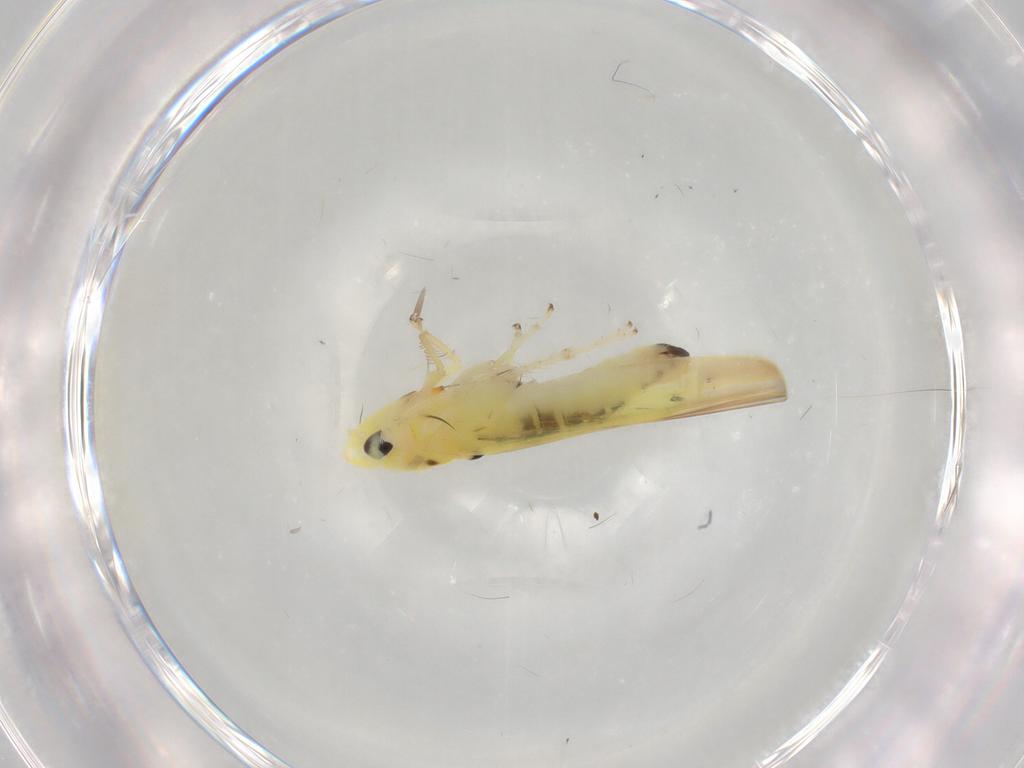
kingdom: Animalia
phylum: Arthropoda
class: Insecta
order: Hemiptera
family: Cicadellidae
